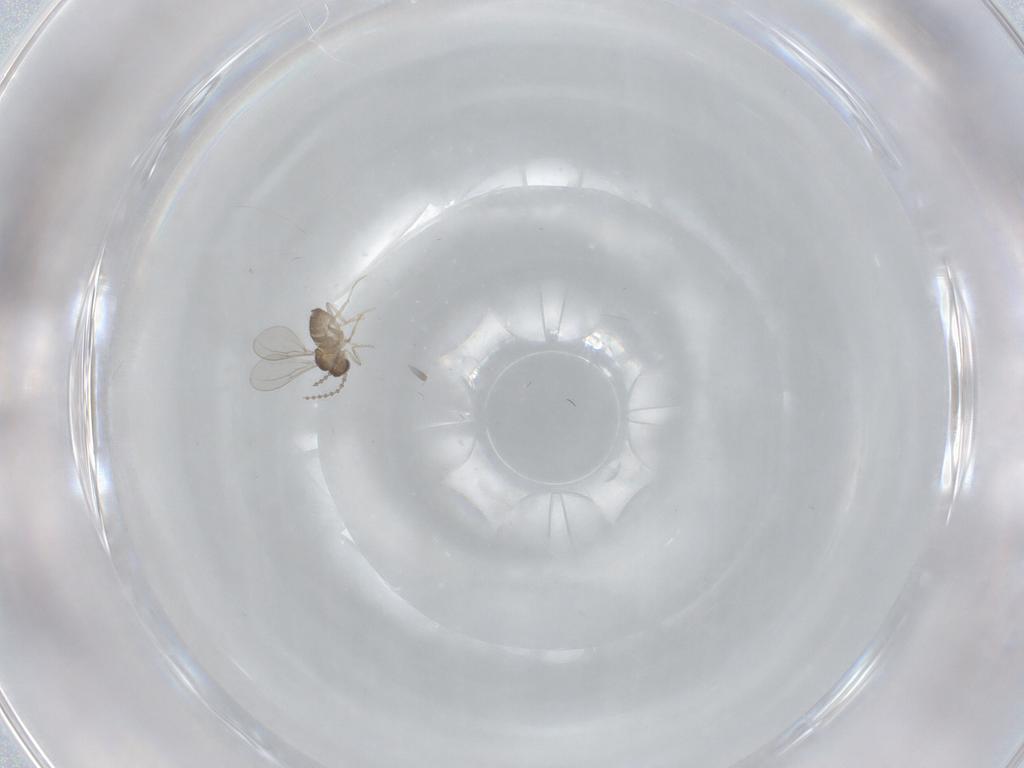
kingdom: Animalia
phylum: Arthropoda
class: Insecta
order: Diptera
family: Cecidomyiidae
